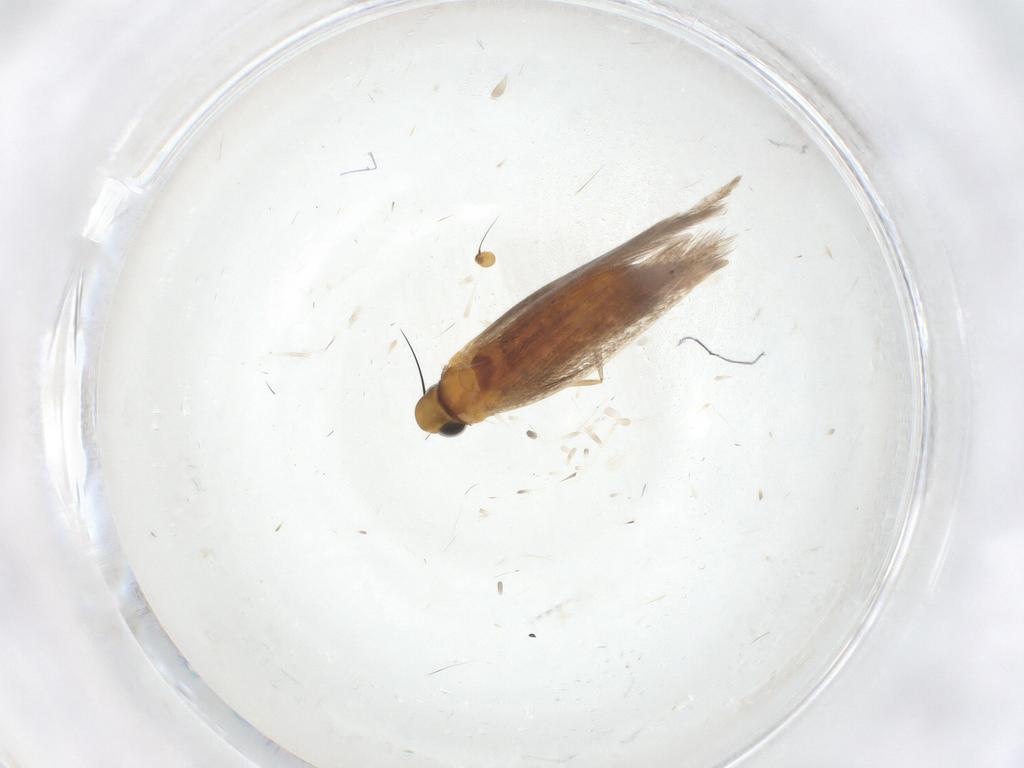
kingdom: Animalia
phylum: Arthropoda
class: Insecta
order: Lepidoptera
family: Gracillariidae
